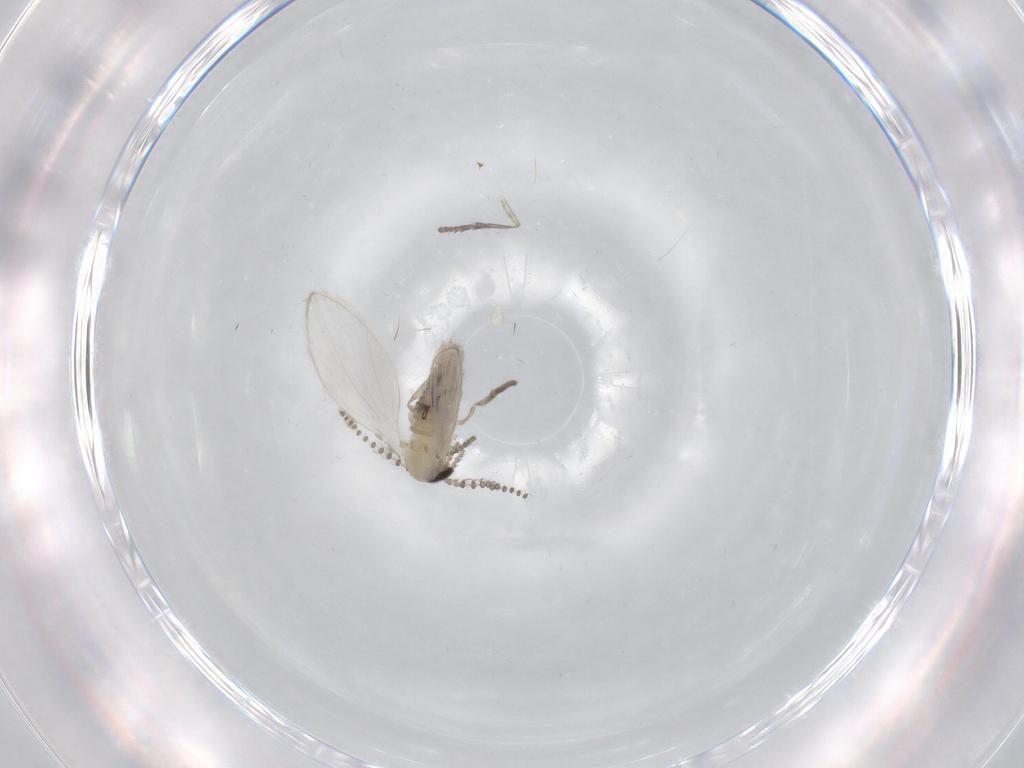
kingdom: Animalia
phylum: Arthropoda
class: Insecta
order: Diptera
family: Psychodidae
